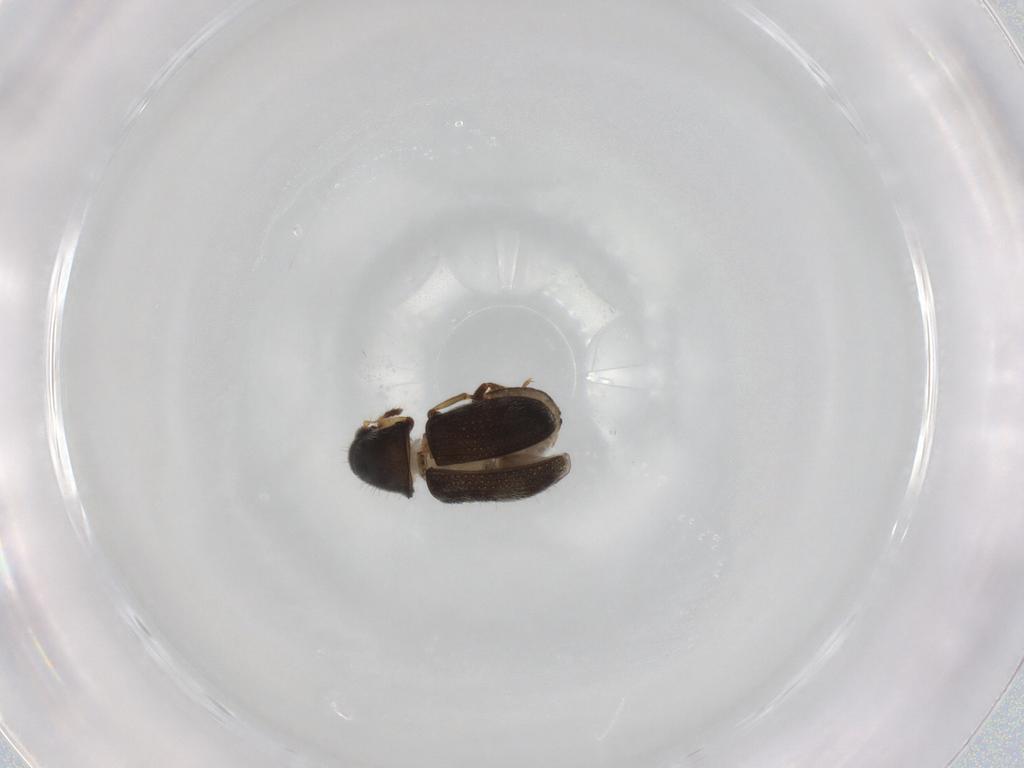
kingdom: Animalia
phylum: Arthropoda
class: Insecta
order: Coleoptera
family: Anthribidae
